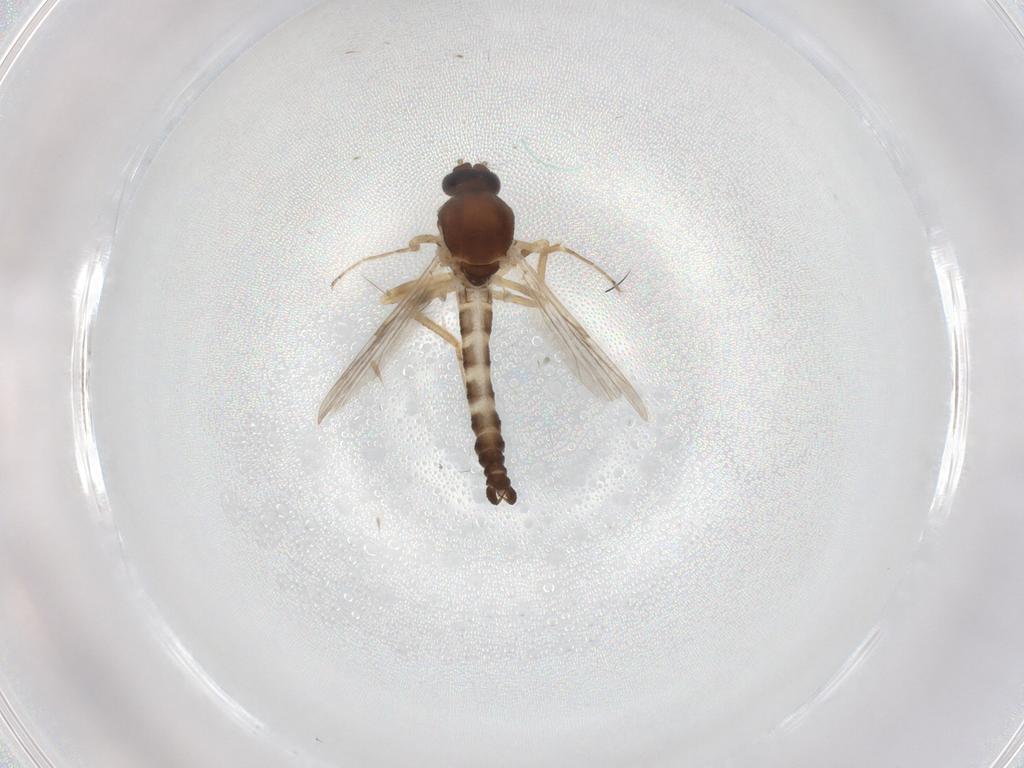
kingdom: Animalia
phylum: Arthropoda
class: Insecta
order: Diptera
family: Ceratopogonidae
